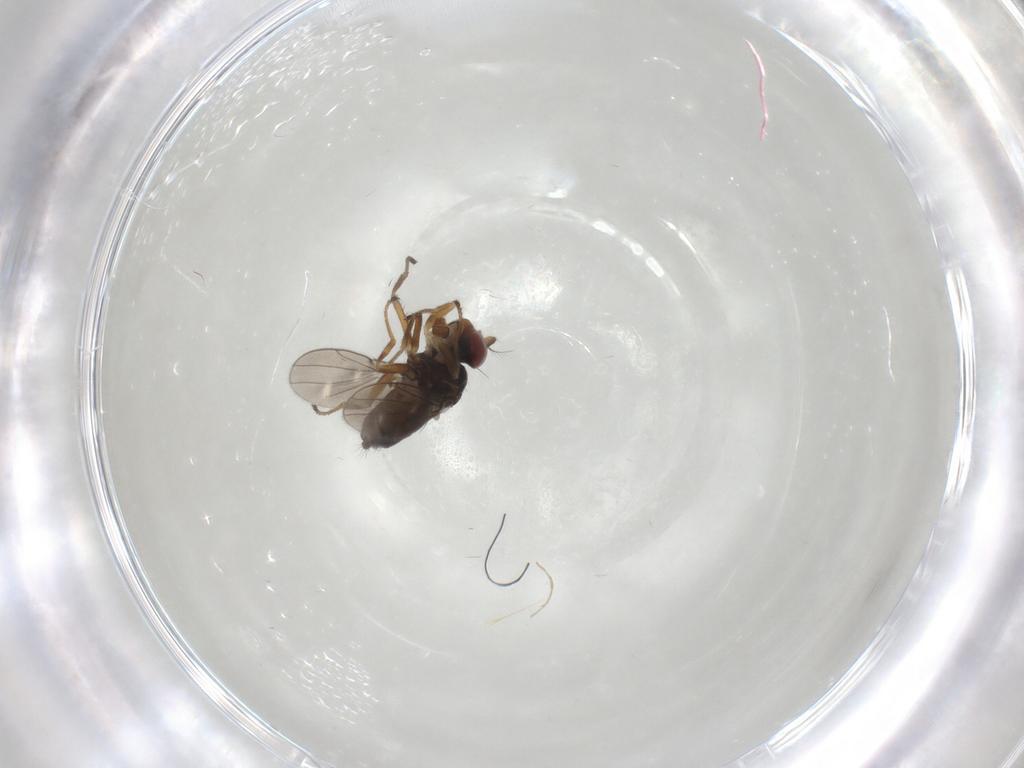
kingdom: Animalia
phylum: Arthropoda
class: Insecta
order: Diptera
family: Ephydridae
